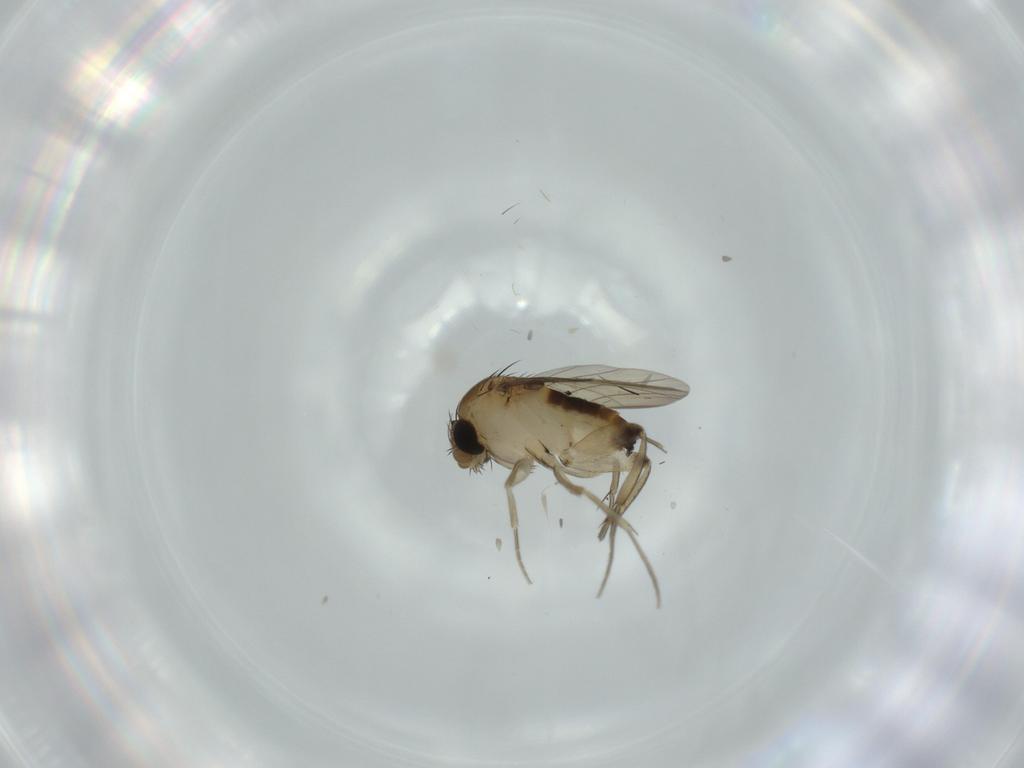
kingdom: Animalia
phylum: Arthropoda
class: Insecta
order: Diptera
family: Phoridae
